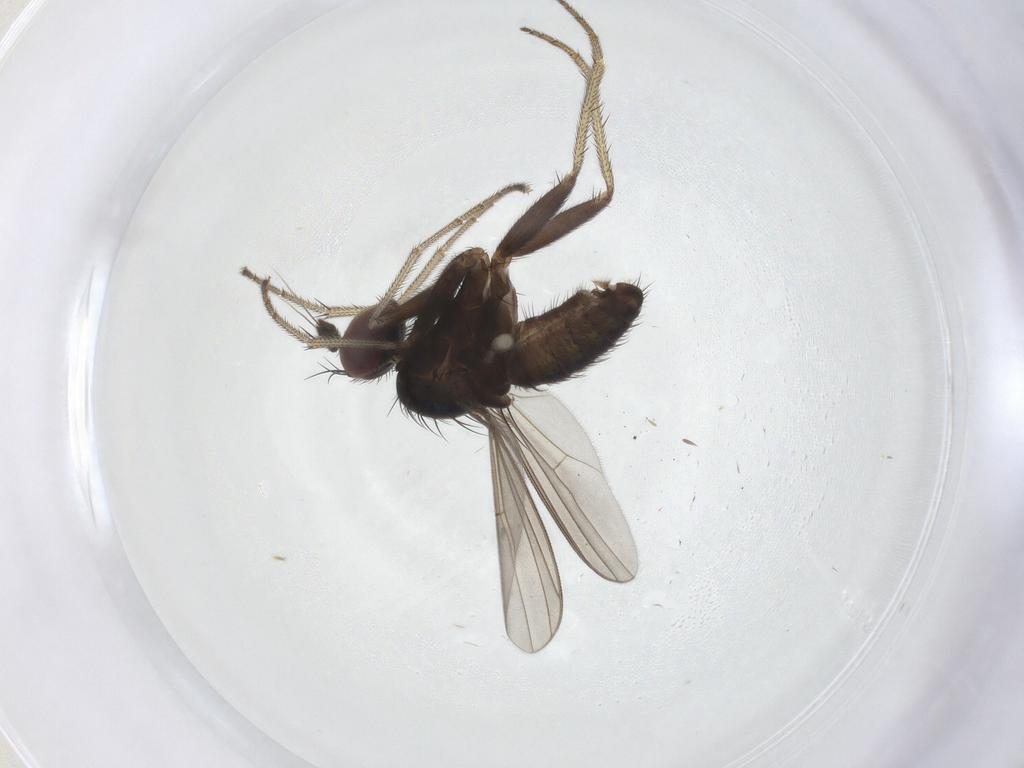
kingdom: Animalia
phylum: Arthropoda
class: Insecta
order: Diptera
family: Dolichopodidae
